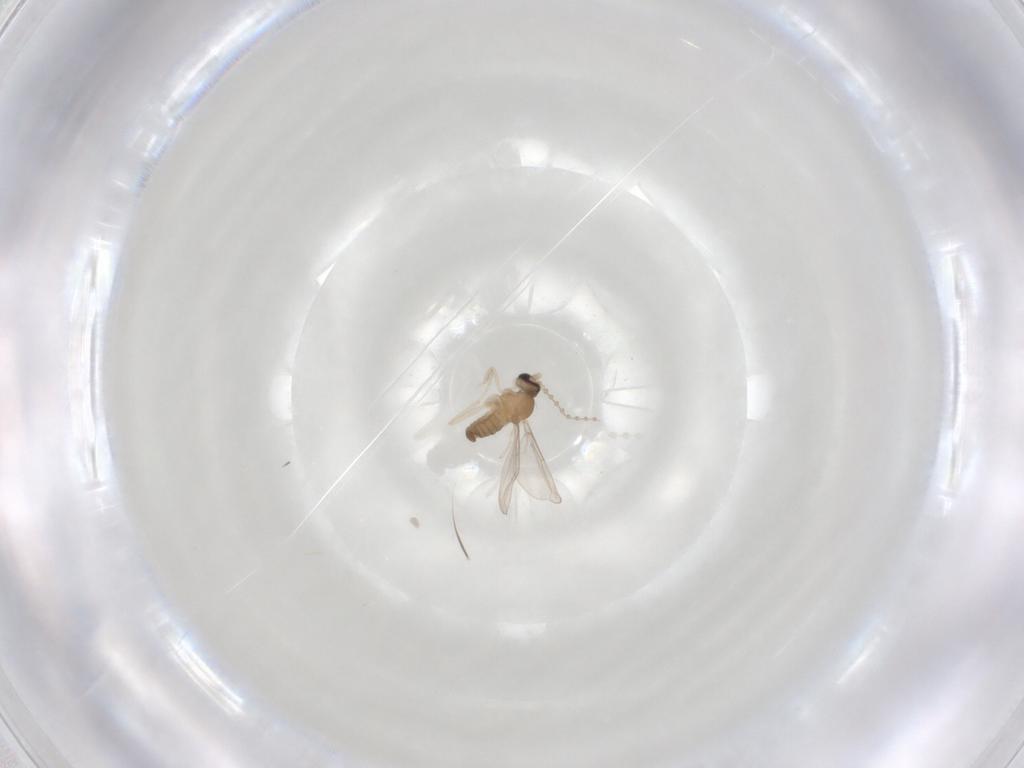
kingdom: Animalia
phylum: Arthropoda
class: Insecta
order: Diptera
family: Cecidomyiidae
